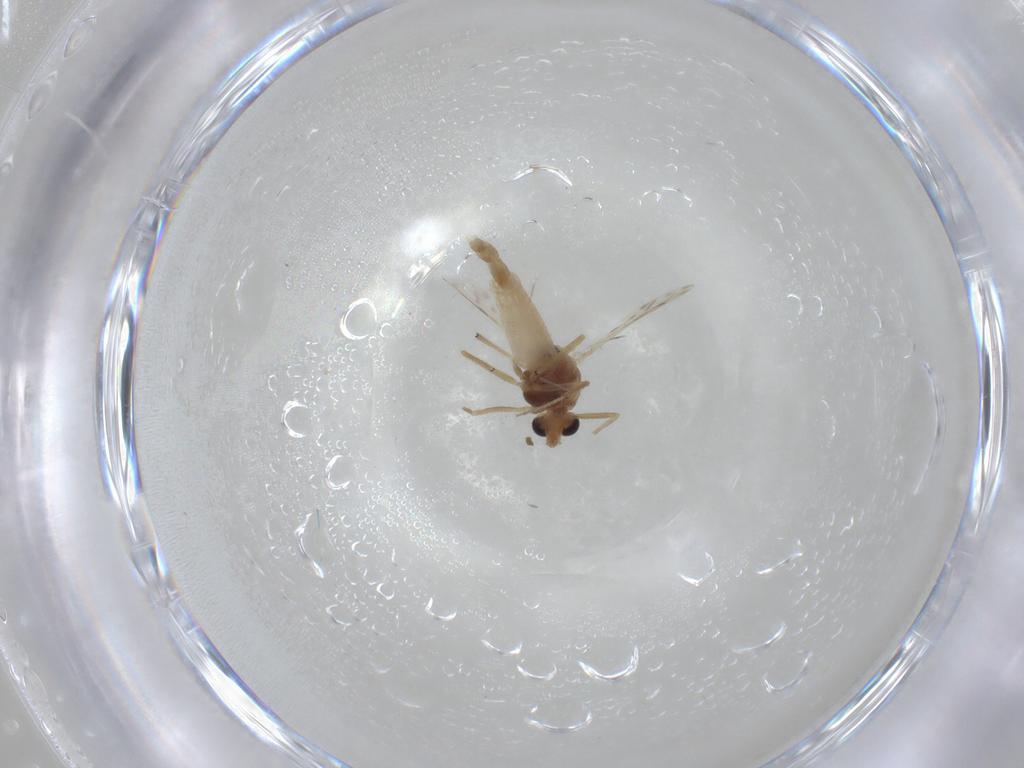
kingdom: Animalia
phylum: Arthropoda
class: Insecta
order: Diptera
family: Chironomidae
